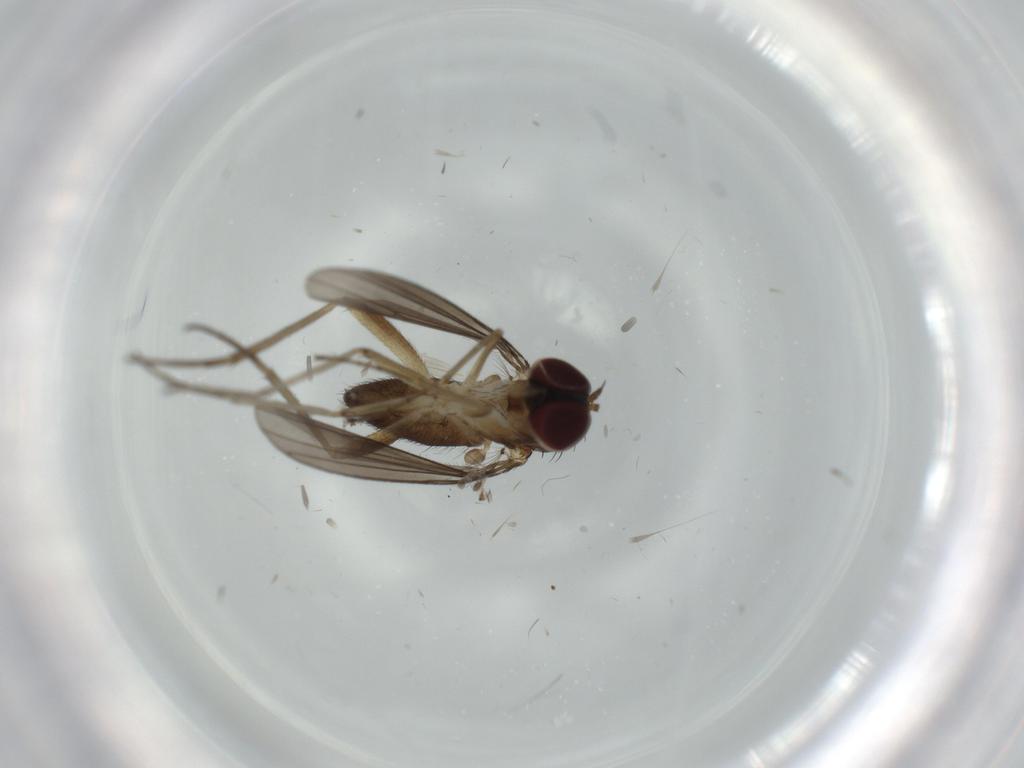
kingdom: Animalia
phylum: Arthropoda
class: Insecta
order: Diptera
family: Dolichopodidae
